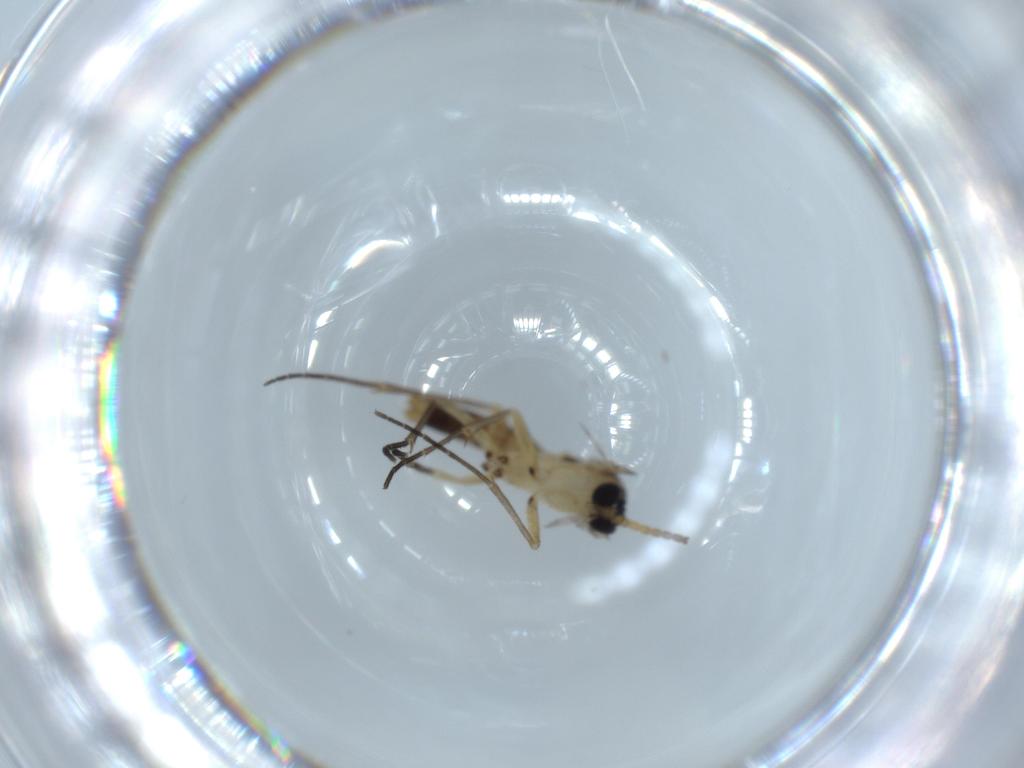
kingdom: Animalia
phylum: Arthropoda
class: Insecta
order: Diptera
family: Mycetophilidae
